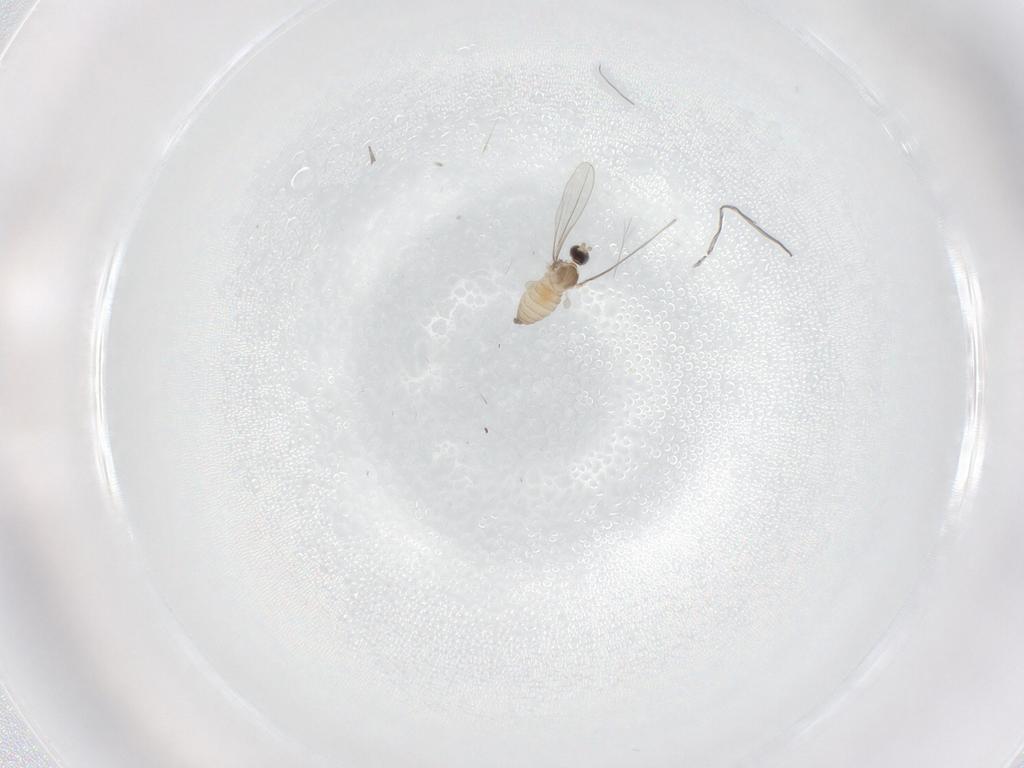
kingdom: Animalia
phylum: Arthropoda
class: Insecta
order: Diptera
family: Cecidomyiidae
